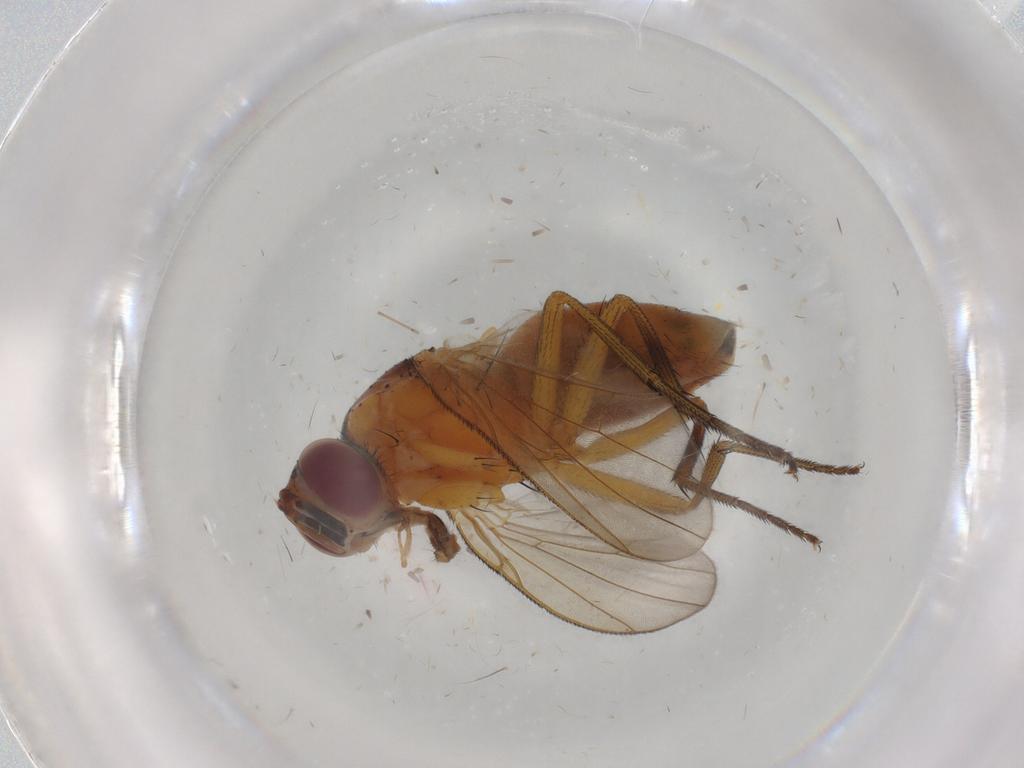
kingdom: Animalia
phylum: Arthropoda
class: Insecta
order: Diptera
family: Muscidae
